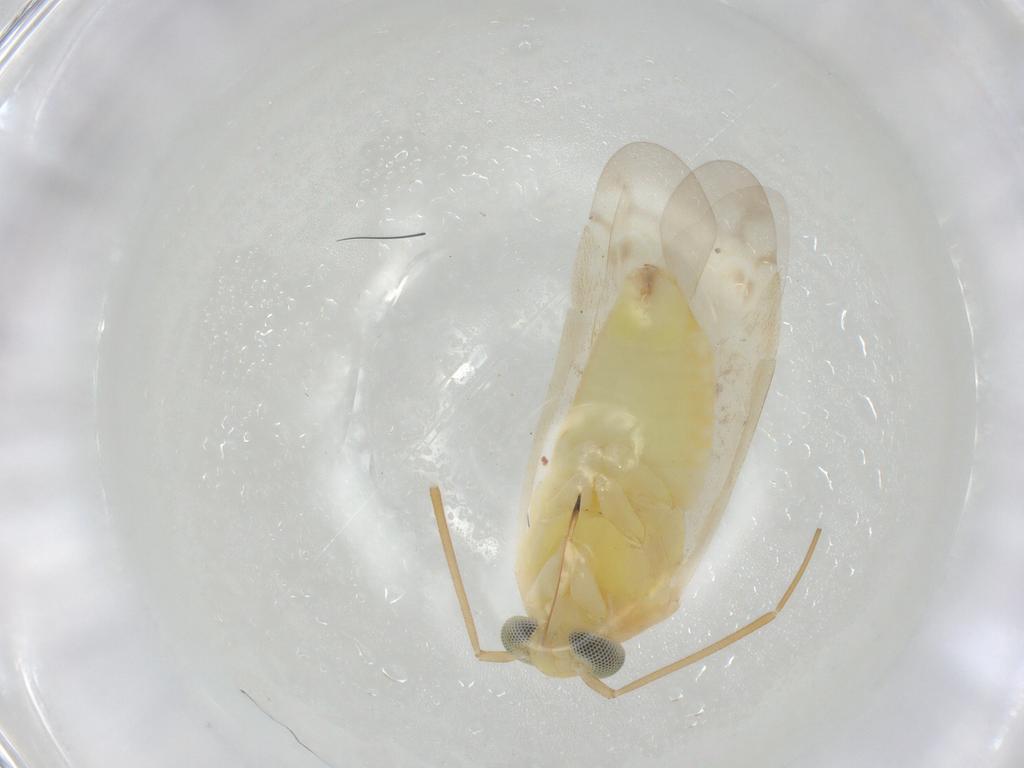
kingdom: Animalia
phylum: Arthropoda
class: Insecta
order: Hemiptera
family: Miridae
